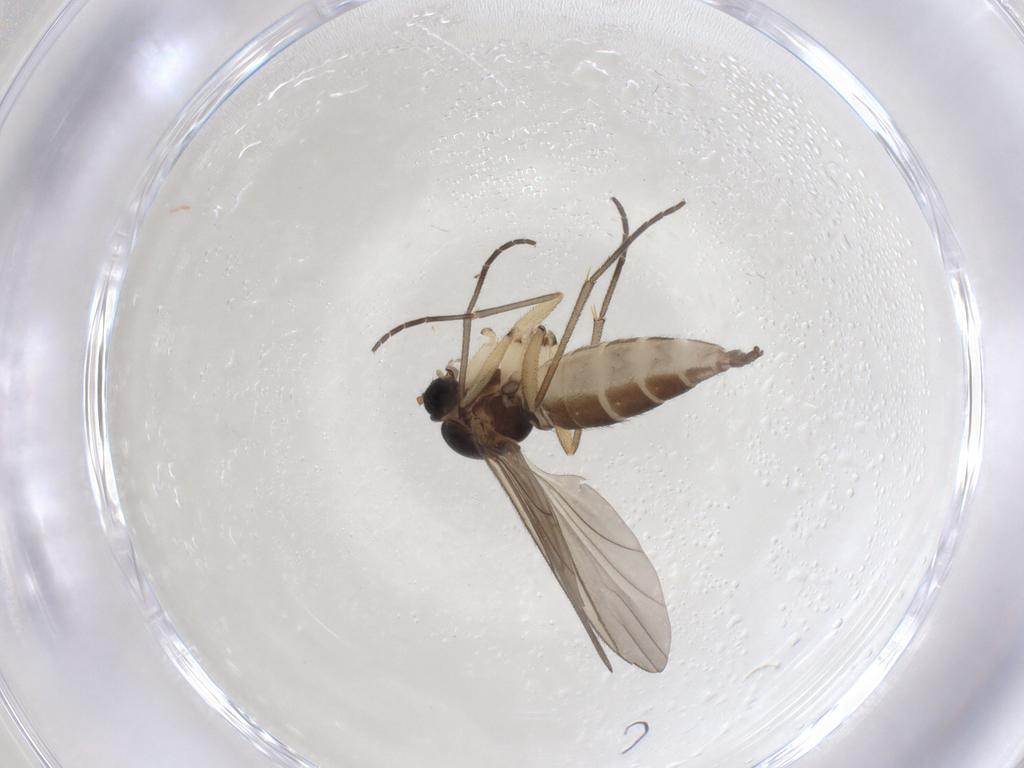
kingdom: Animalia
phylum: Arthropoda
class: Insecta
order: Diptera
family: Sciaridae
